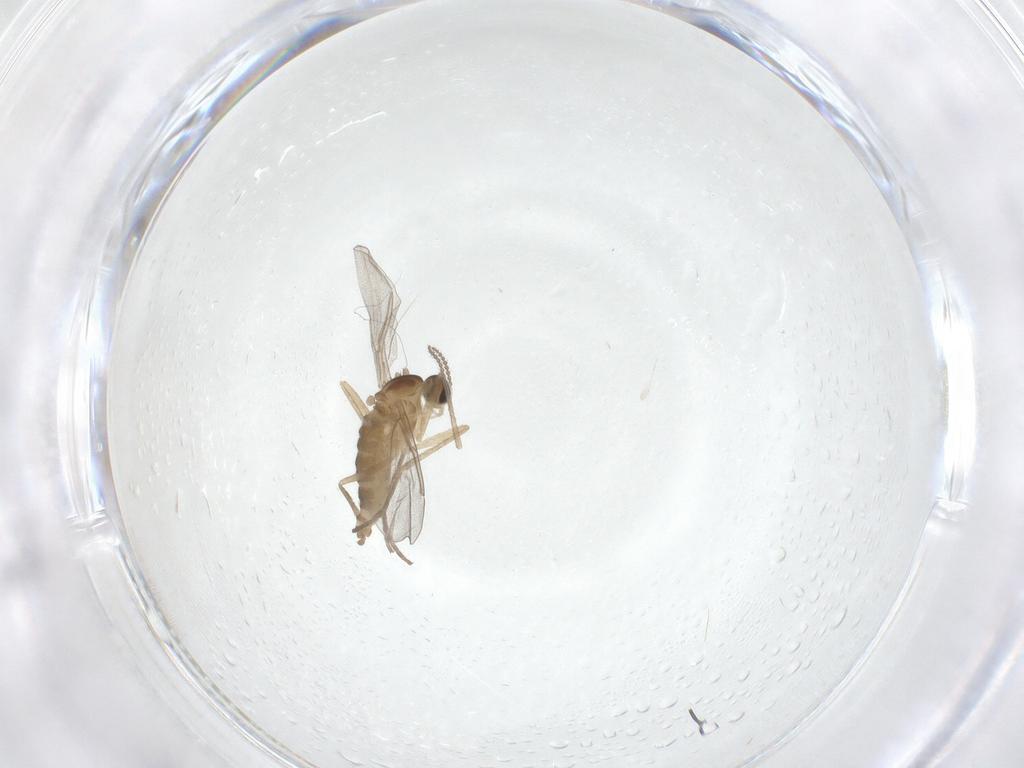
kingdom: Animalia
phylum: Arthropoda
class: Insecta
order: Diptera
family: Cecidomyiidae
